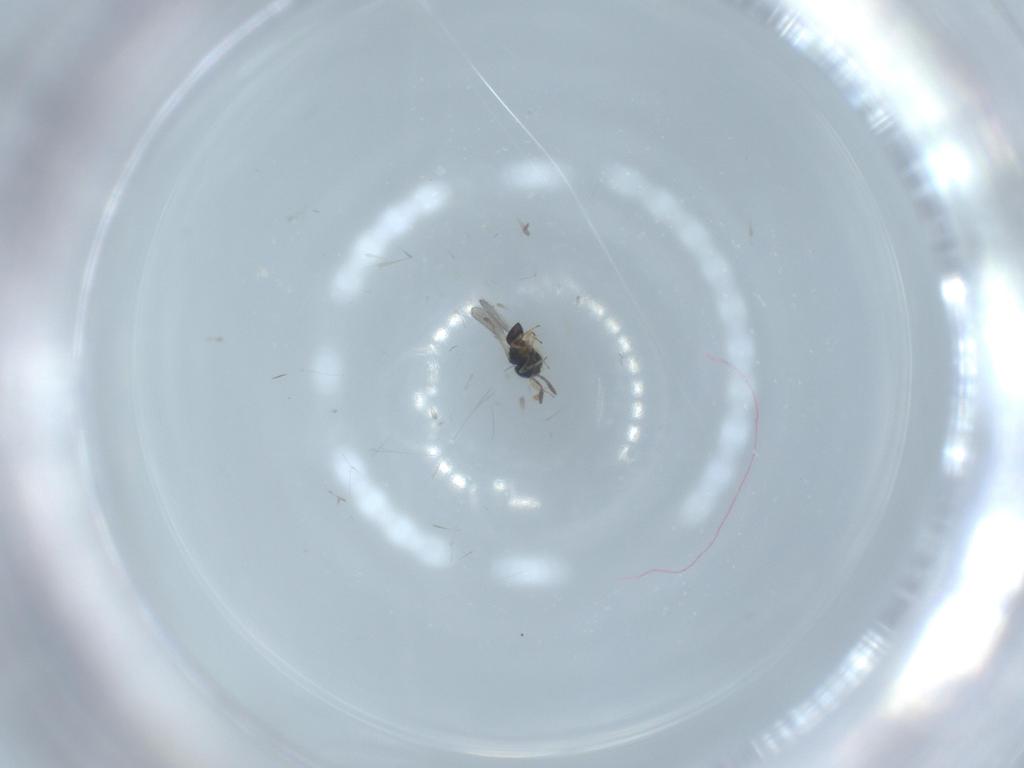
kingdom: Animalia
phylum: Arthropoda
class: Insecta
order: Hymenoptera
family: Scelionidae
